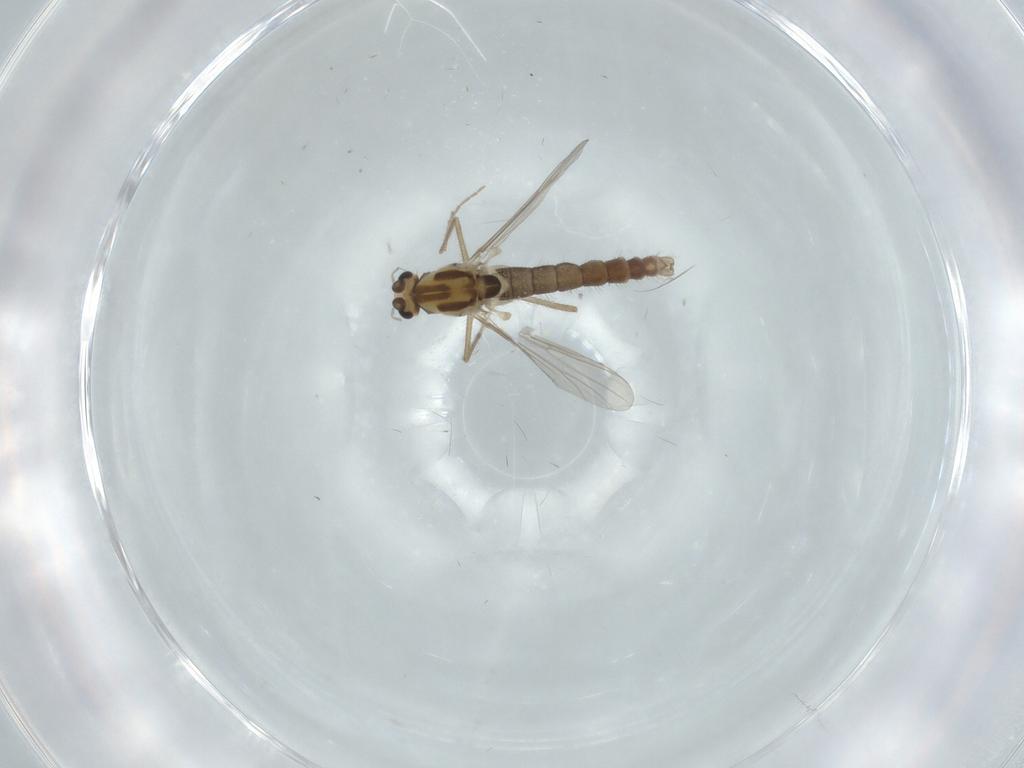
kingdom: Animalia
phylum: Arthropoda
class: Insecta
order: Diptera
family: Chironomidae
